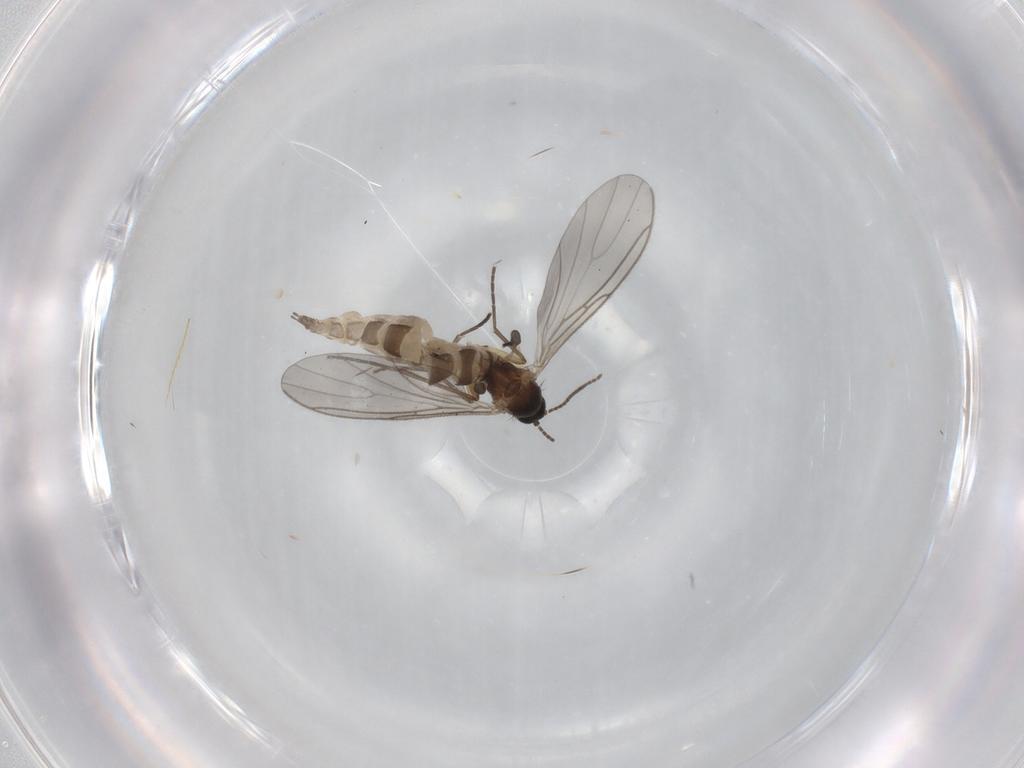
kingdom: Animalia
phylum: Arthropoda
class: Insecta
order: Diptera
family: Sciaridae
